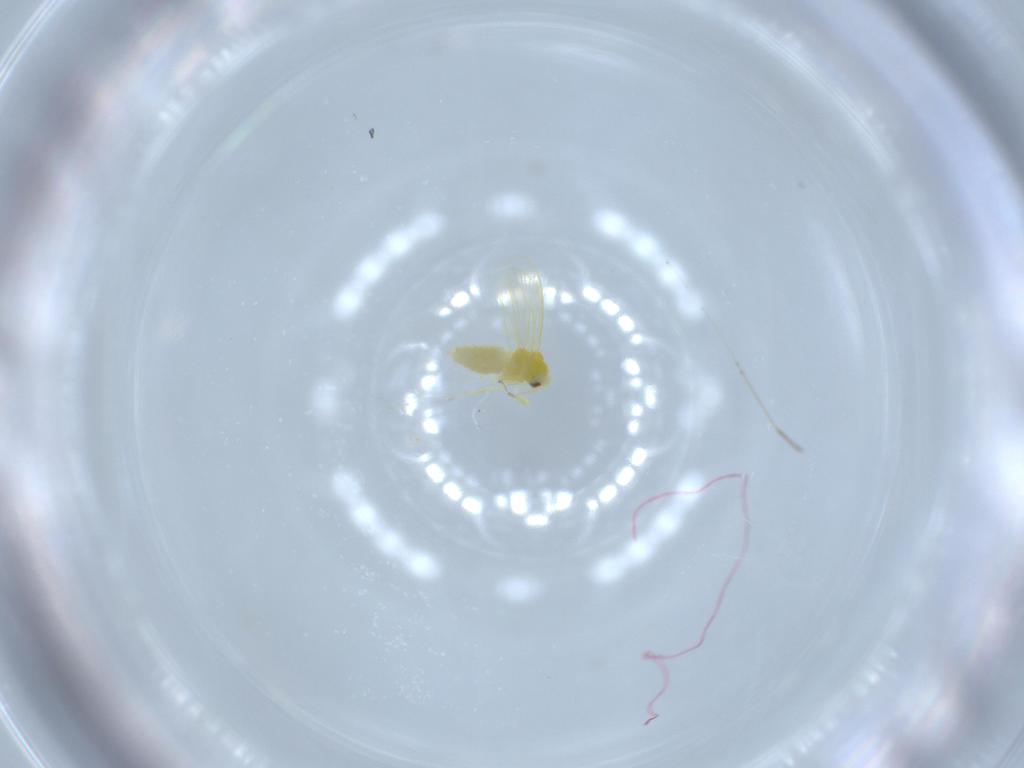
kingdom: Animalia
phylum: Arthropoda
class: Insecta
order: Hemiptera
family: Aleyrodidae
